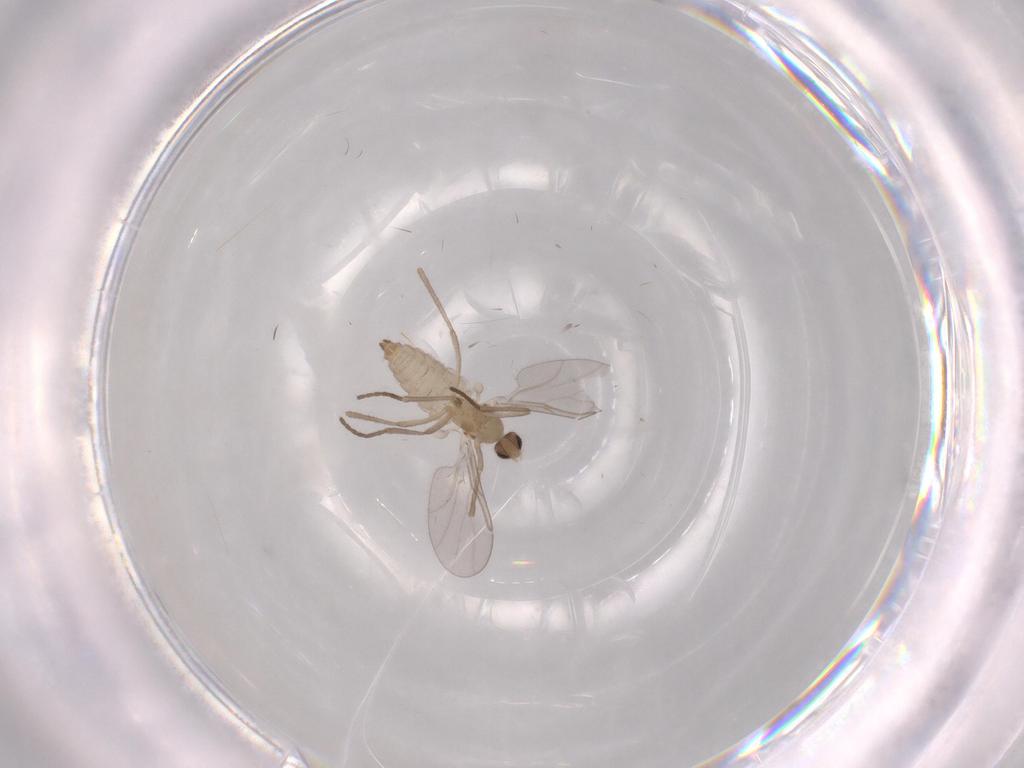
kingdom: Animalia
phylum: Arthropoda
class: Insecta
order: Diptera
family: Cecidomyiidae
